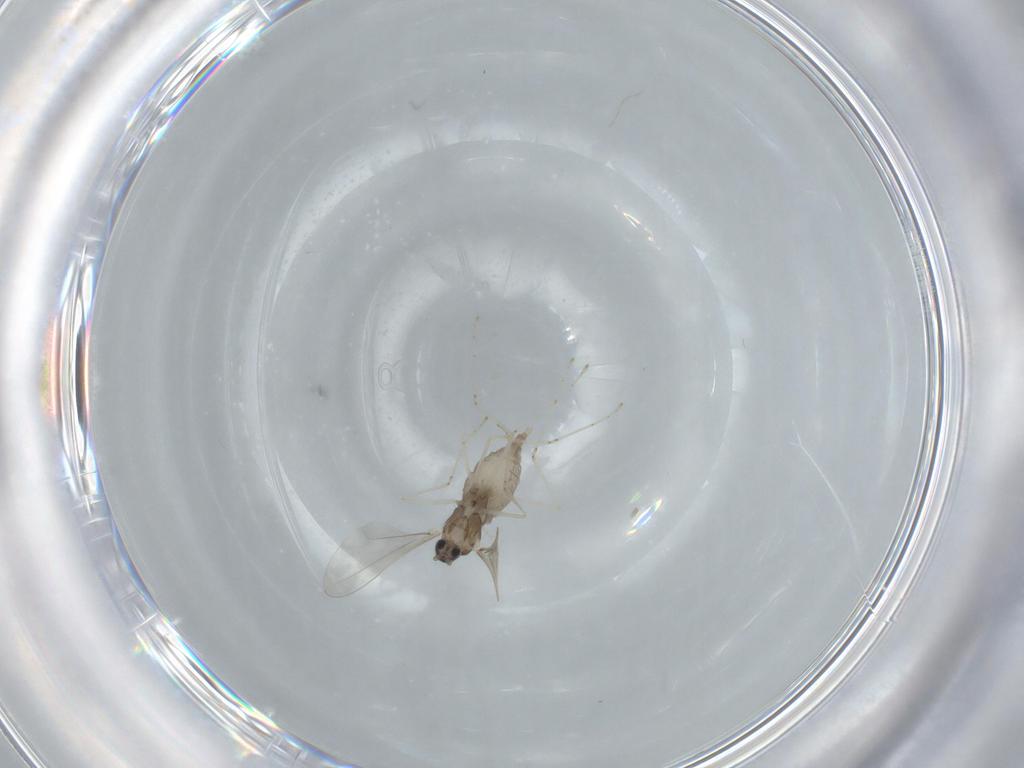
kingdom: Animalia
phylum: Arthropoda
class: Insecta
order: Diptera
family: Cecidomyiidae
